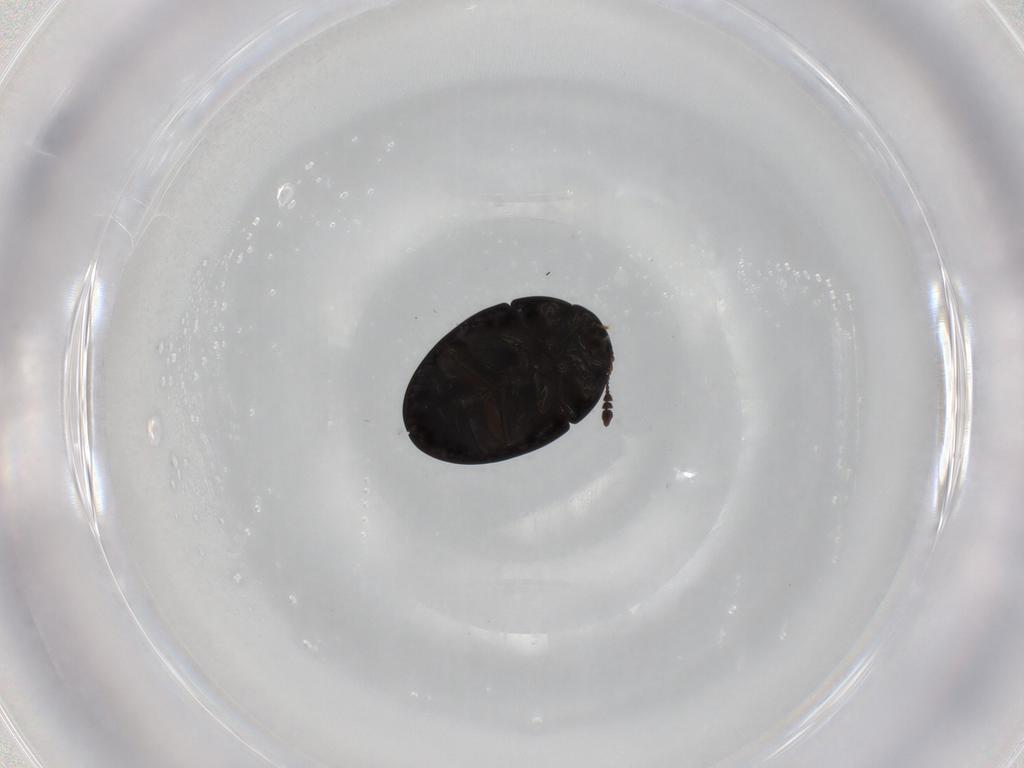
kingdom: Animalia
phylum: Arthropoda
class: Insecta
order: Coleoptera
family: Phalacridae
